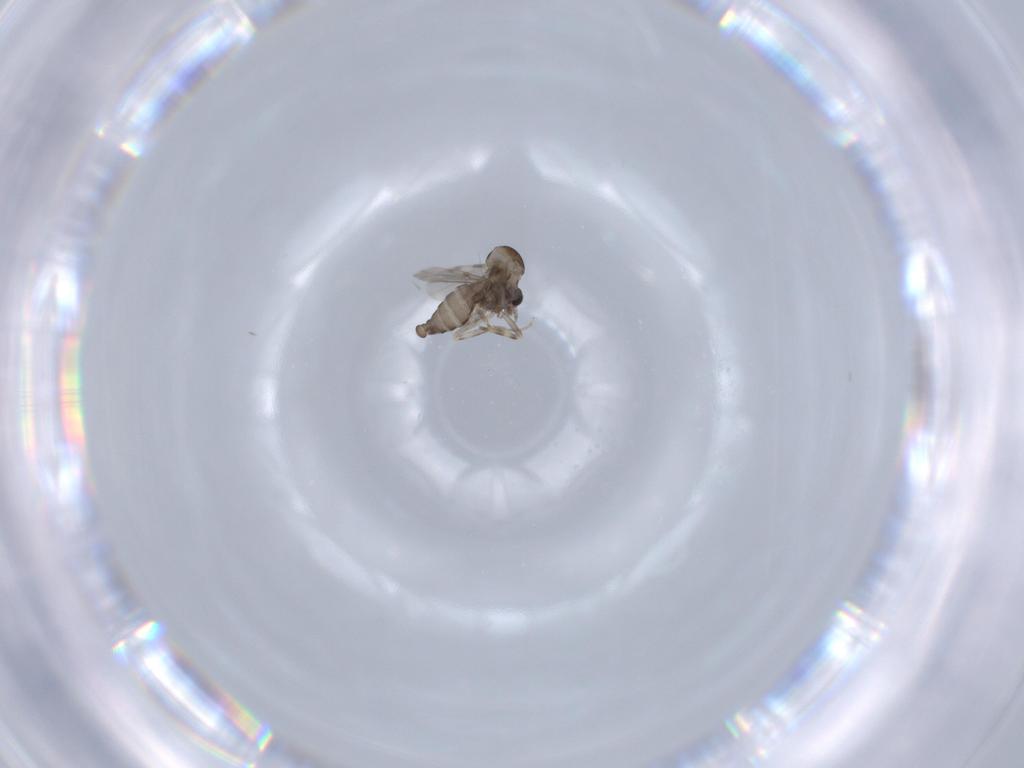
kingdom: Animalia
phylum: Arthropoda
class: Insecta
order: Diptera
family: Ceratopogonidae
